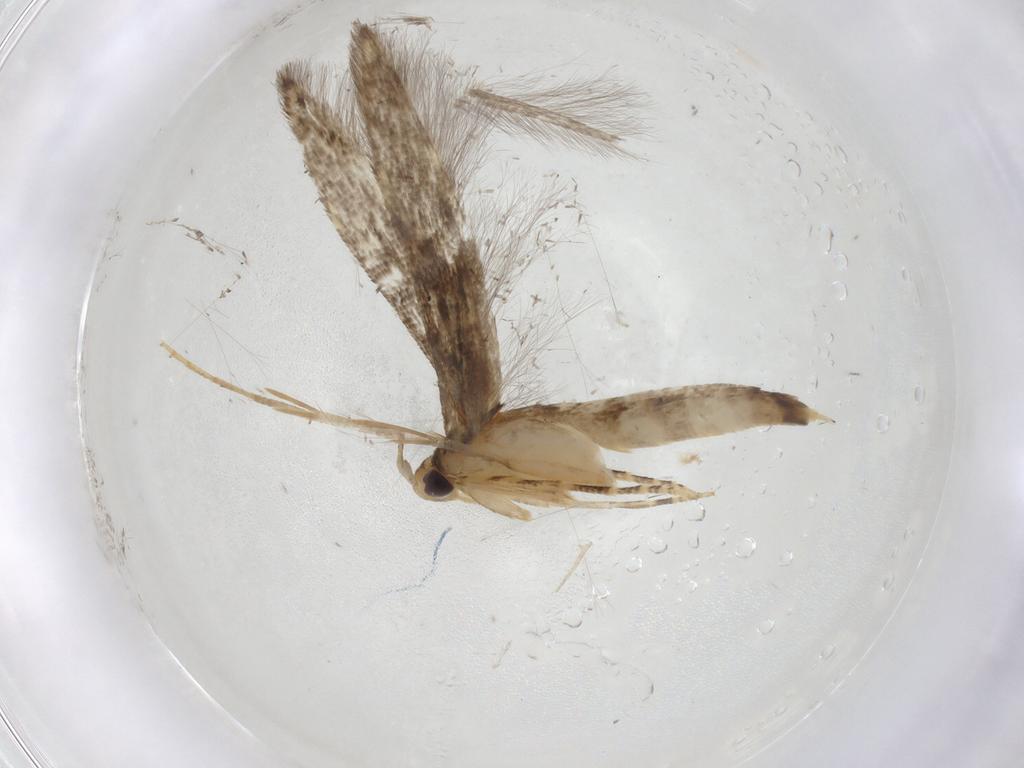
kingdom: Animalia
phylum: Arthropoda
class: Insecta
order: Lepidoptera
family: Gelechiidae
